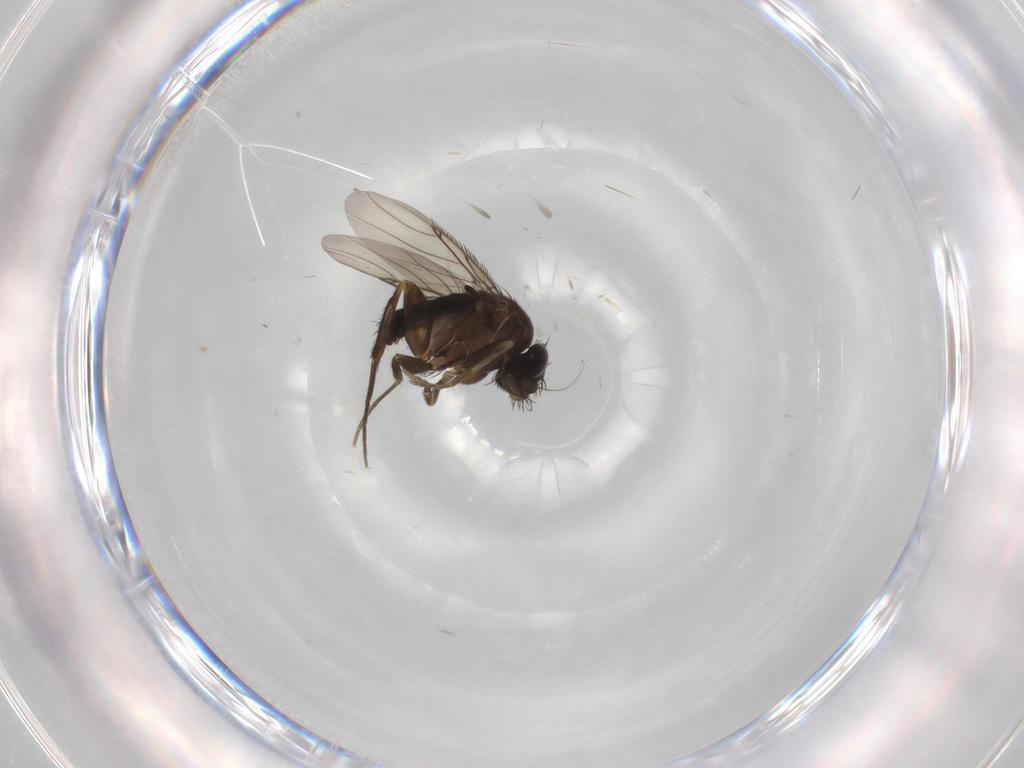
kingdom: Animalia
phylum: Arthropoda
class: Insecta
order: Diptera
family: Phoridae
